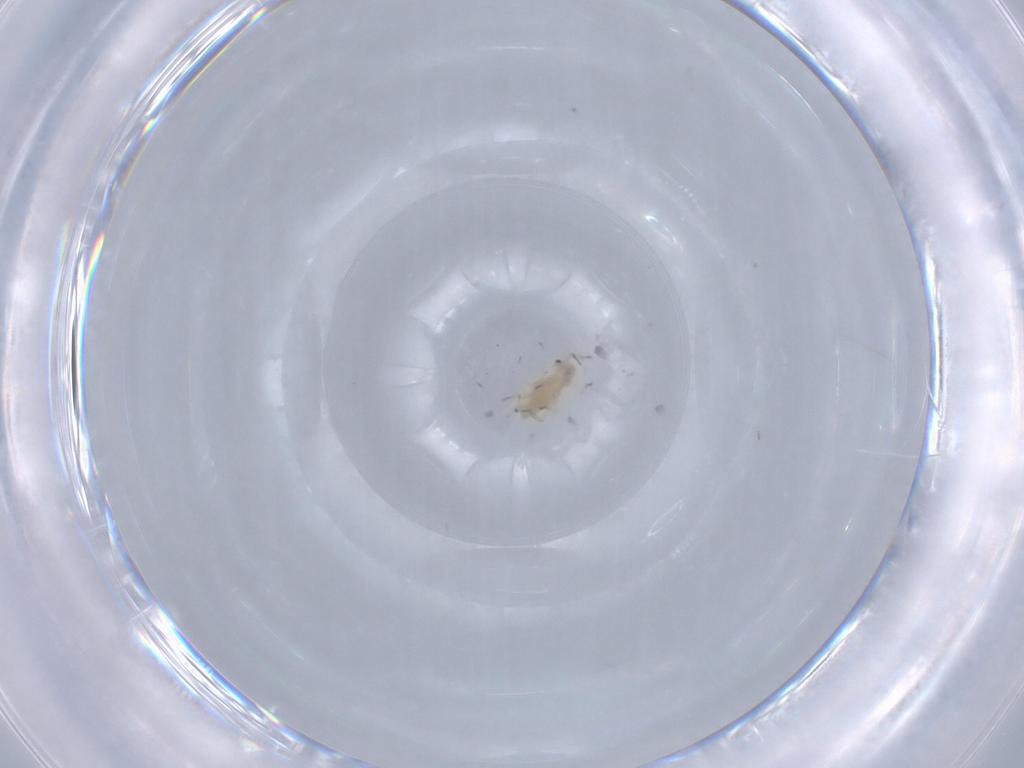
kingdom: Animalia
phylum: Arthropoda
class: Insecta
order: Hemiptera
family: Aphididae
